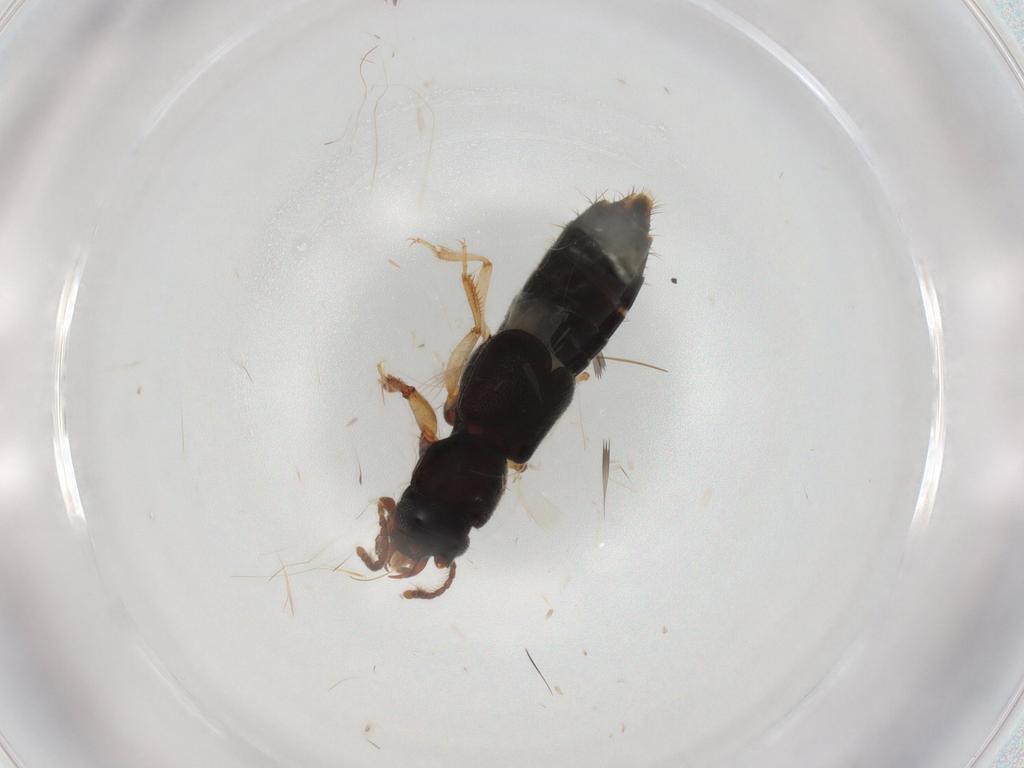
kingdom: Animalia
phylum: Arthropoda
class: Insecta
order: Coleoptera
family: Staphylinidae
